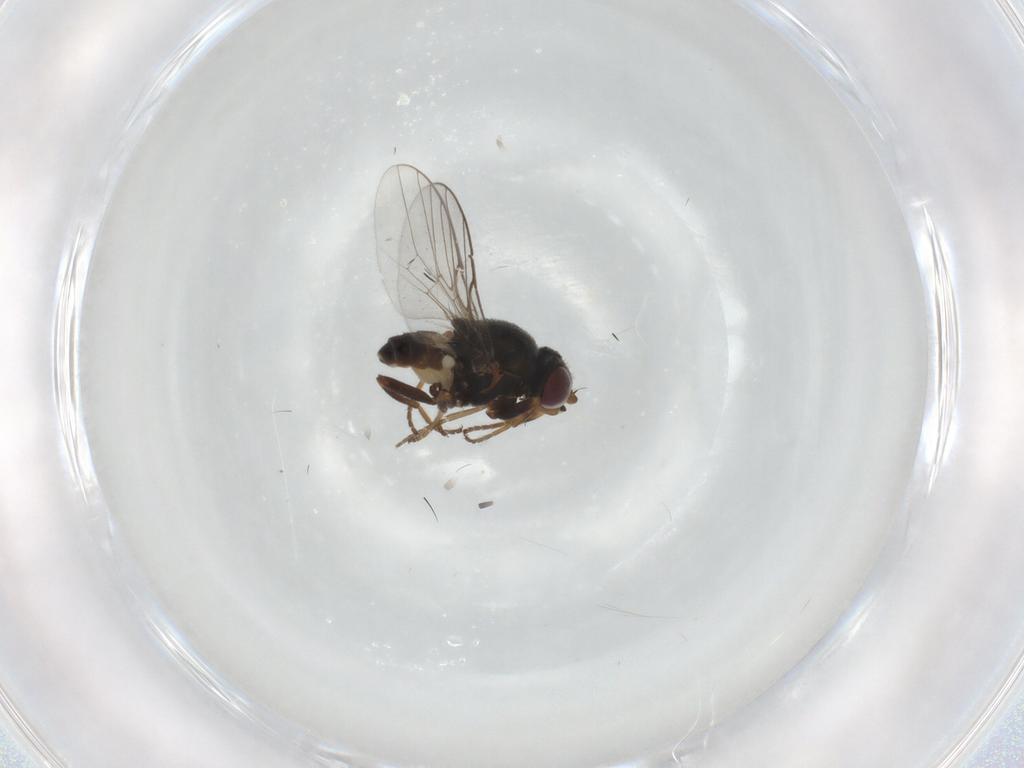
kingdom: Animalia
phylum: Arthropoda
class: Insecta
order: Diptera
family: Chloropidae
